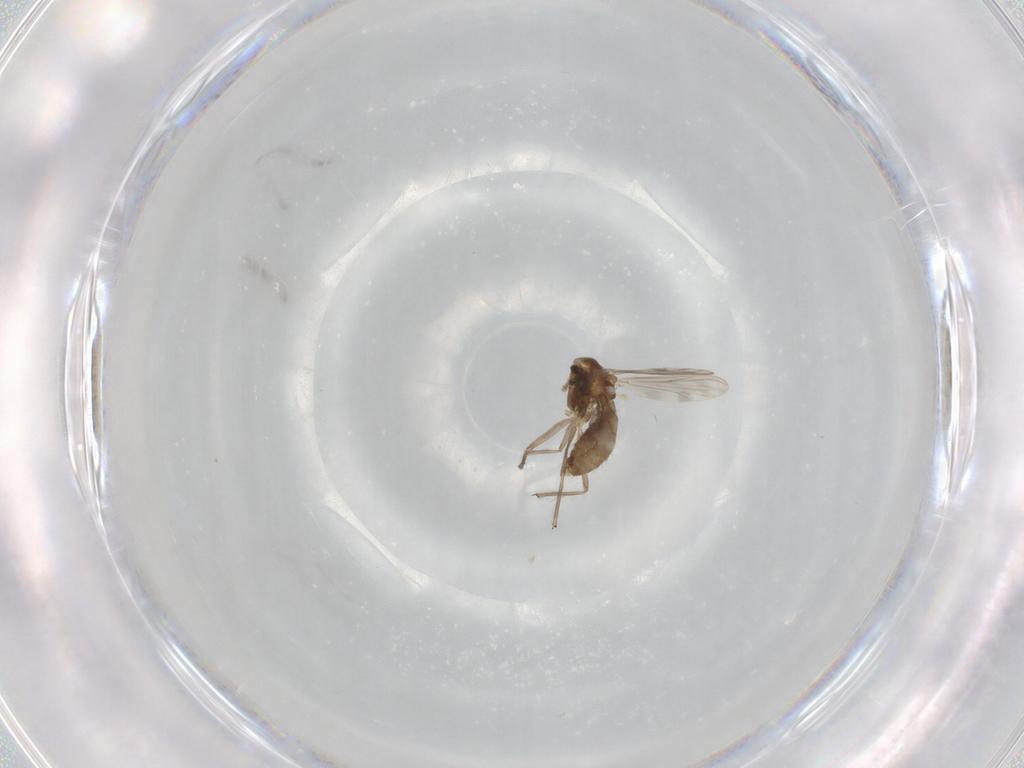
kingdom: Animalia
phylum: Arthropoda
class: Insecta
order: Diptera
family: Chironomidae
